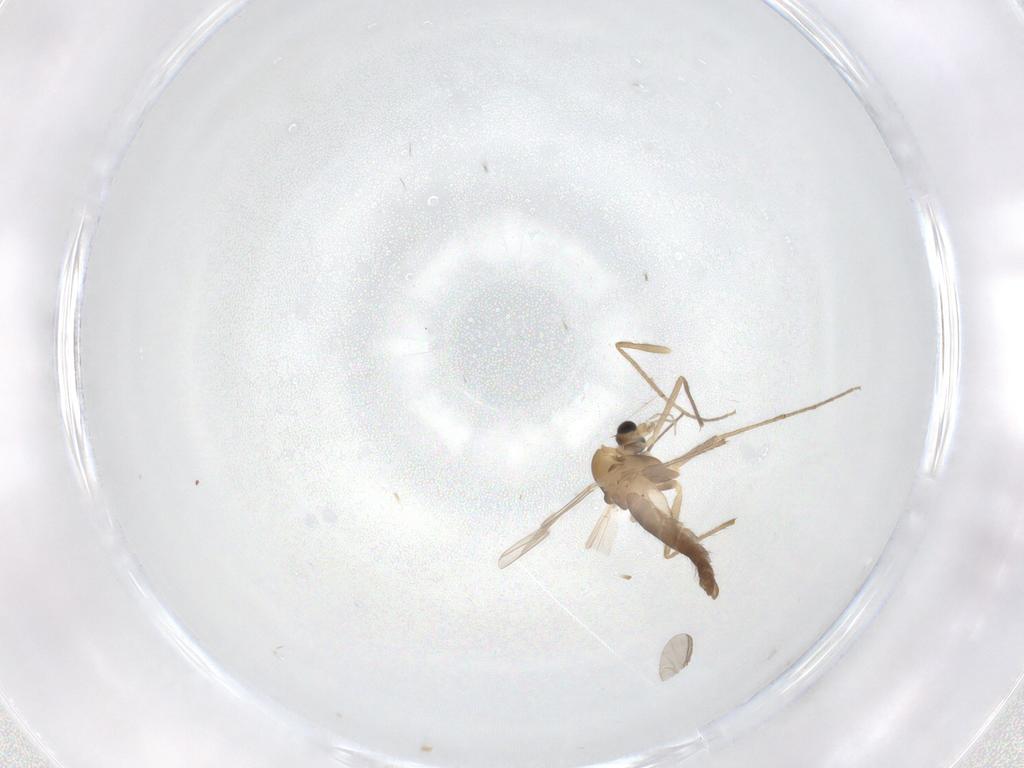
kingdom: Animalia
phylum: Arthropoda
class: Insecta
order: Diptera
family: Chironomidae
